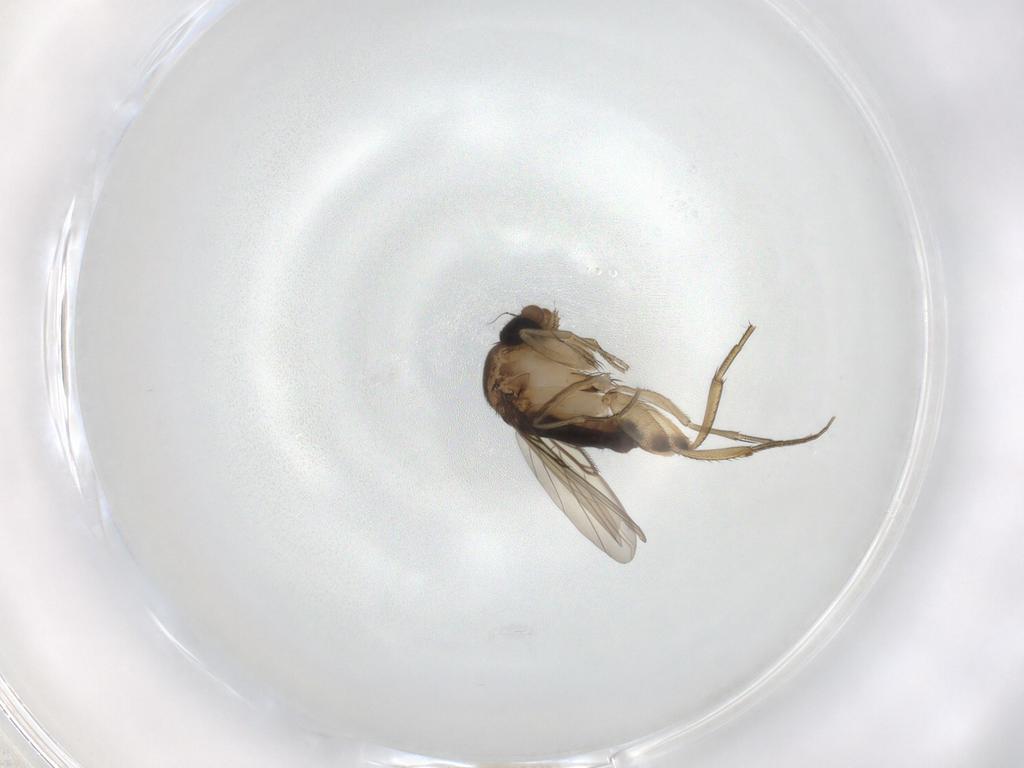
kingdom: Animalia
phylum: Arthropoda
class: Insecta
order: Diptera
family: Phoridae
